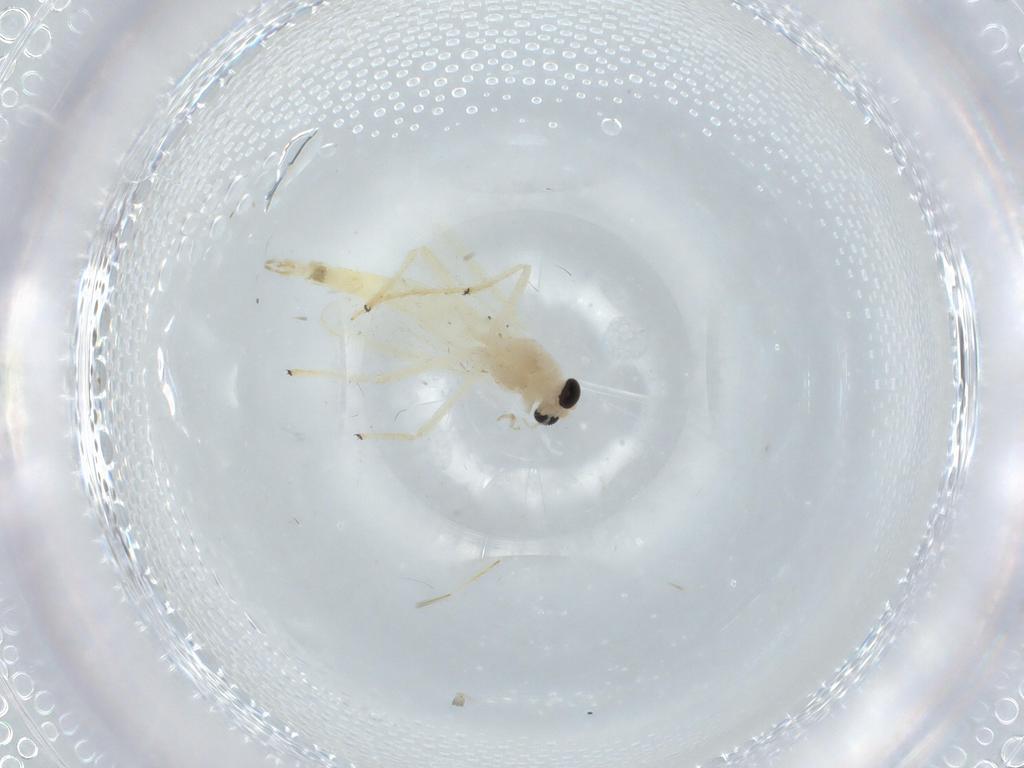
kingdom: Animalia
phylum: Arthropoda
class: Insecta
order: Diptera
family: Chironomidae
